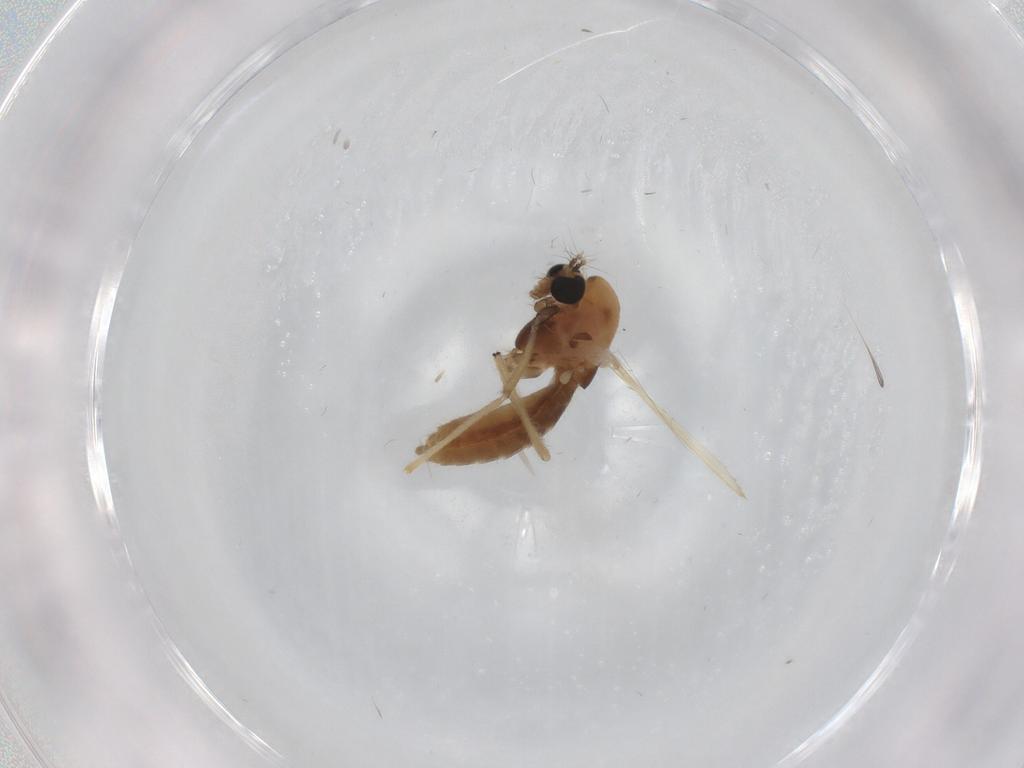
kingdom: Animalia
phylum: Arthropoda
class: Insecta
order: Diptera
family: Chironomidae
